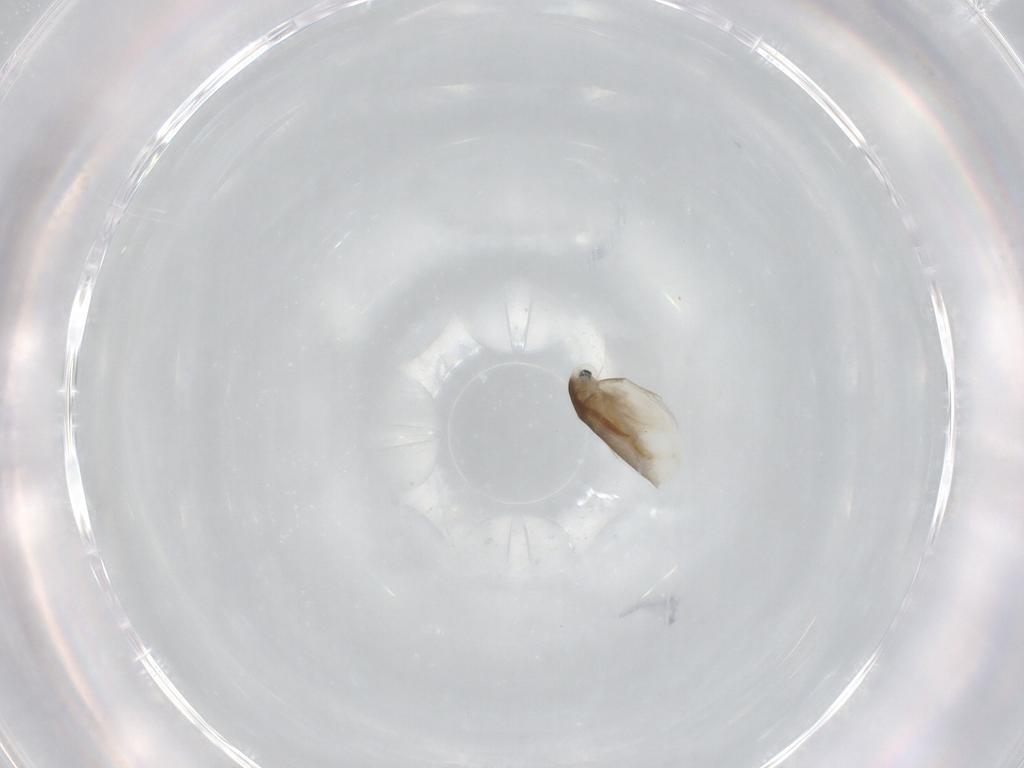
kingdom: Animalia
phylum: Arthropoda
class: Branchiopoda
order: Diplostraca
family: Daphniidae
